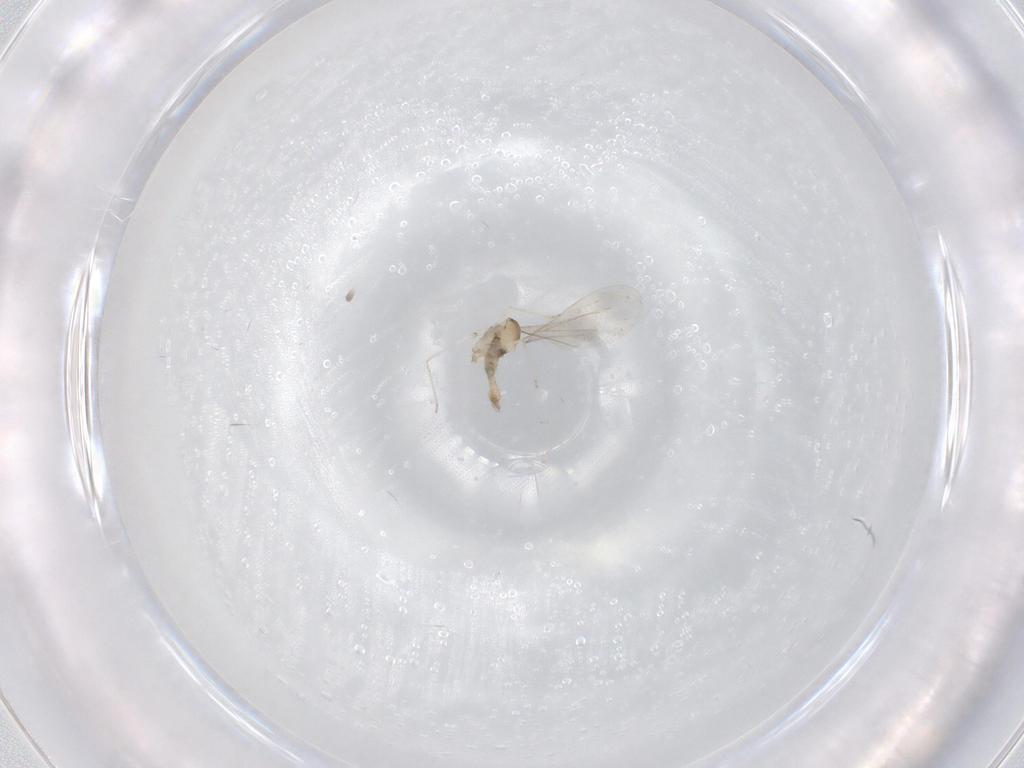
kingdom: Animalia
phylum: Arthropoda
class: Insecta
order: Diptera
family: Cecidomyiidae
